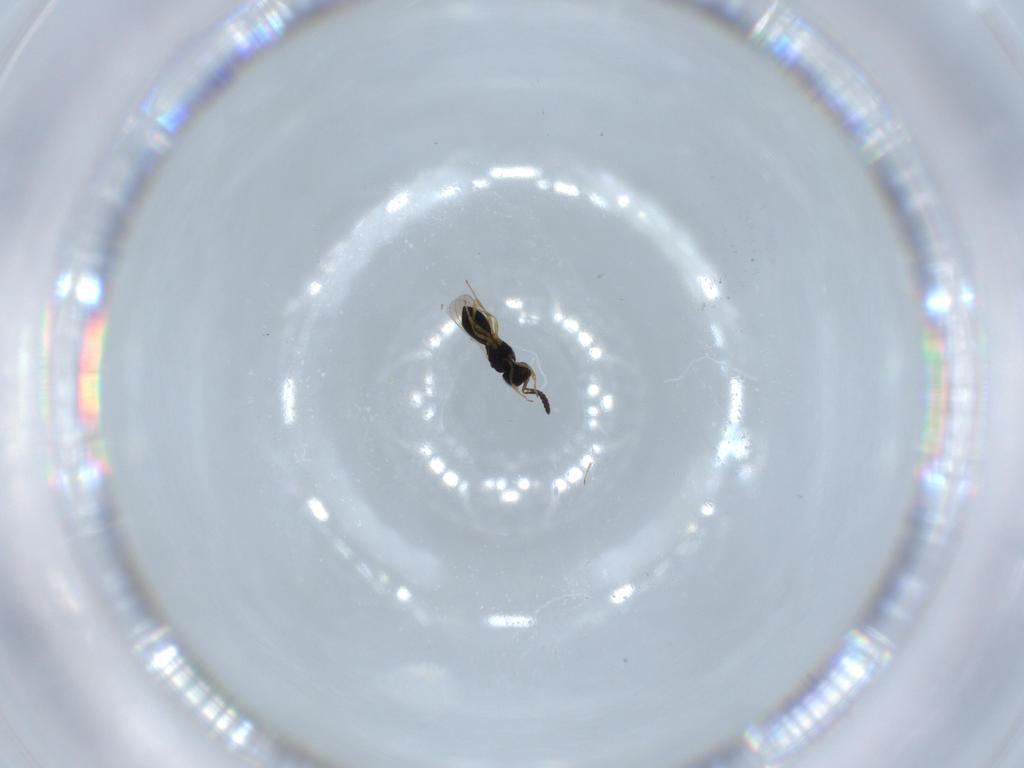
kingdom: Animalia
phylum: Arthropoda
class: Insecta
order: Hymenoptera
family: Scelionidae
